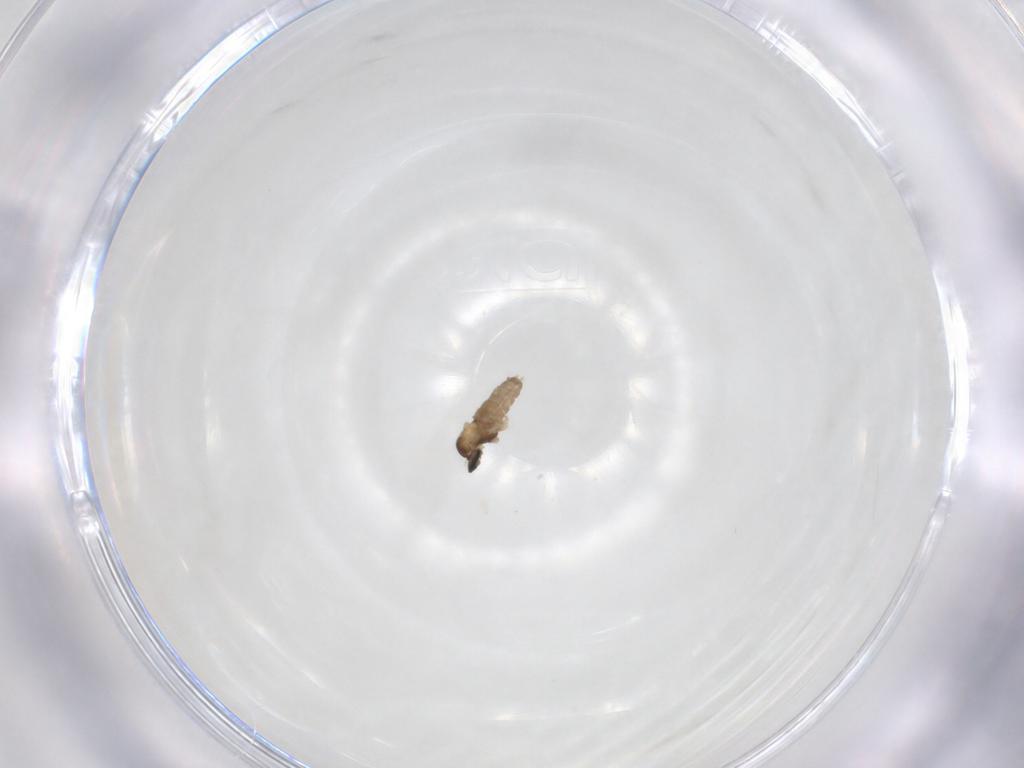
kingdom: Animalia
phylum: Arthropoda
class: Insecta
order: Diptera
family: Cecidomyiidae
